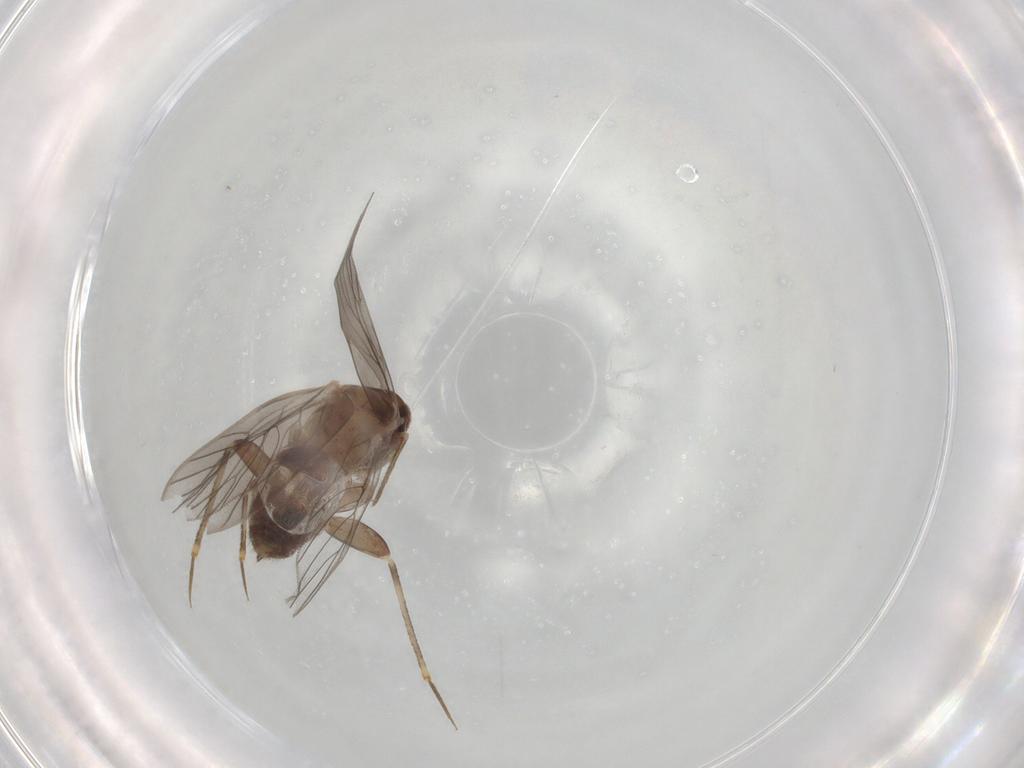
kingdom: Animalia
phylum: Arthropoda
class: Insecta
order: Psocodea
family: Lepidopsocidae
